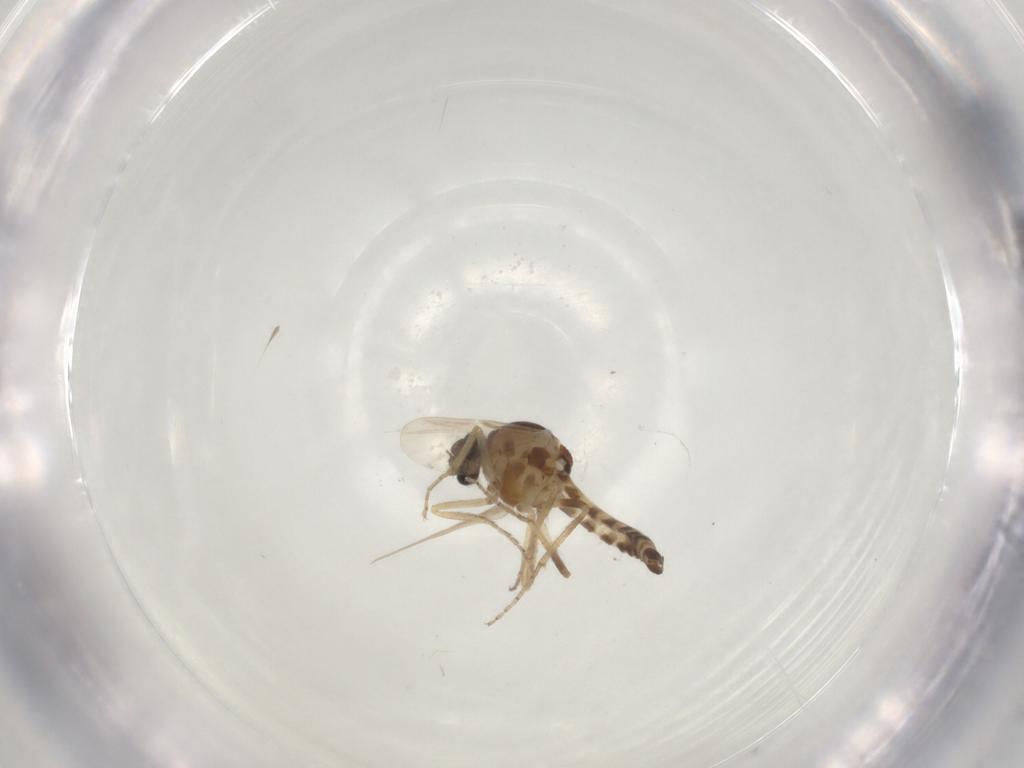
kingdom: Animalia
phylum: Arthropoda
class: Insecta
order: Diptera
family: Ceratopogonidae
